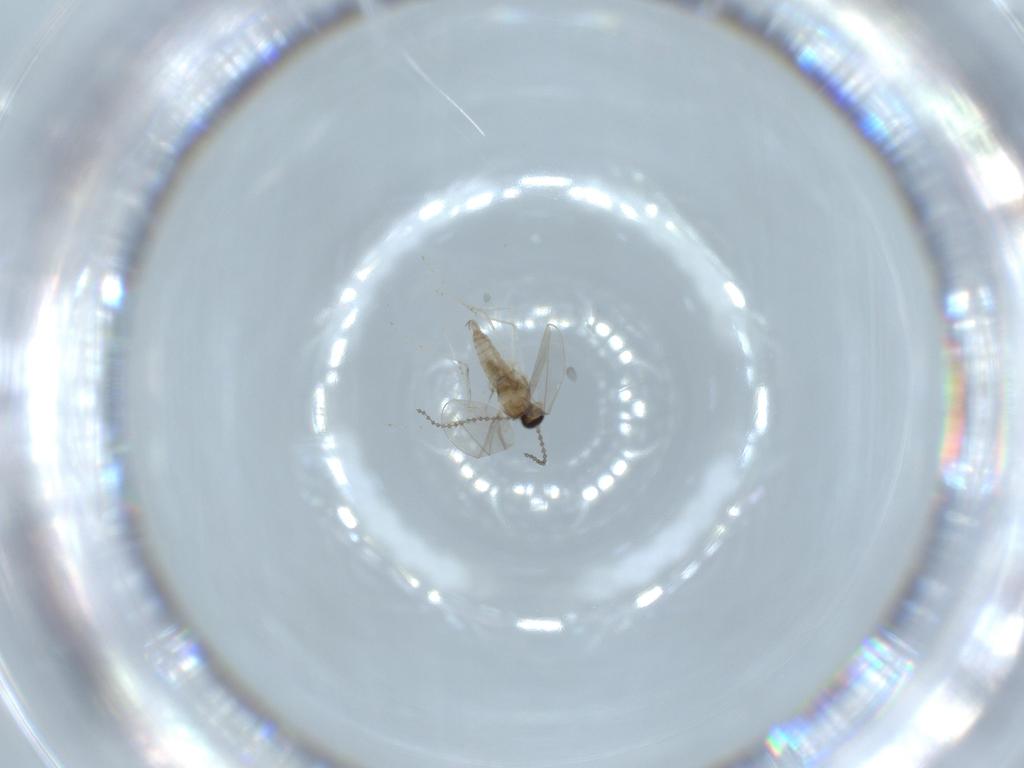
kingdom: Animalia
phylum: Arthropoda
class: Insecta
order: Diptera
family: Cecidomyiidae
